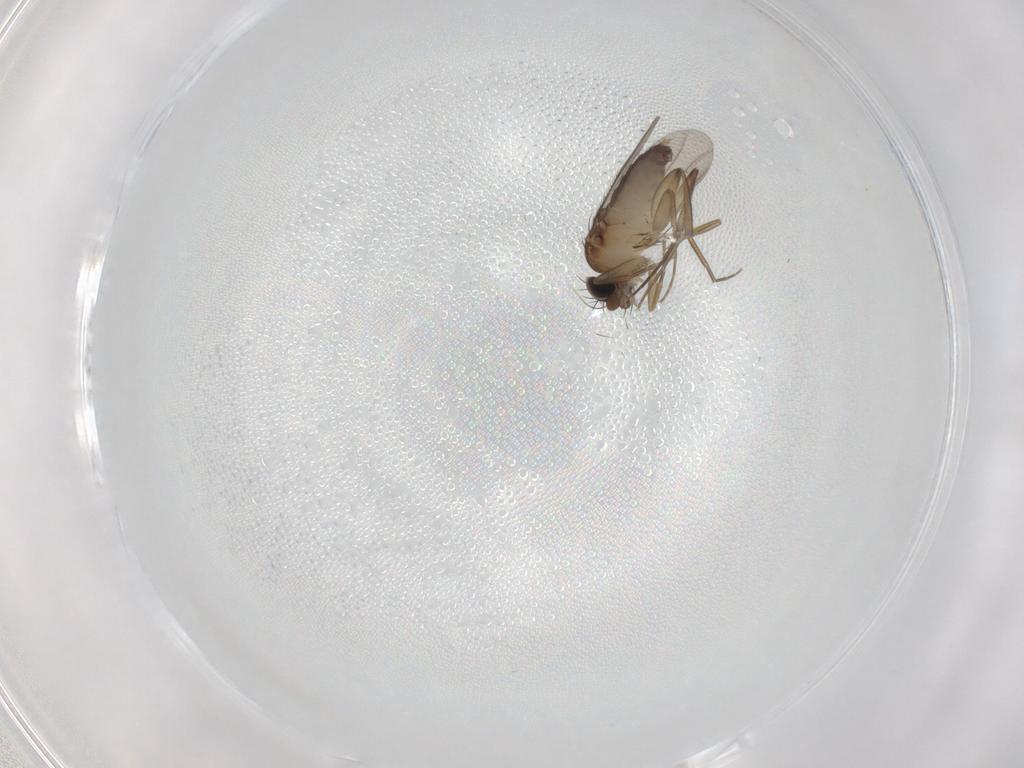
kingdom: Animalia
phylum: Arthropoda
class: Insecta
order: Diptera
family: Phoridae
